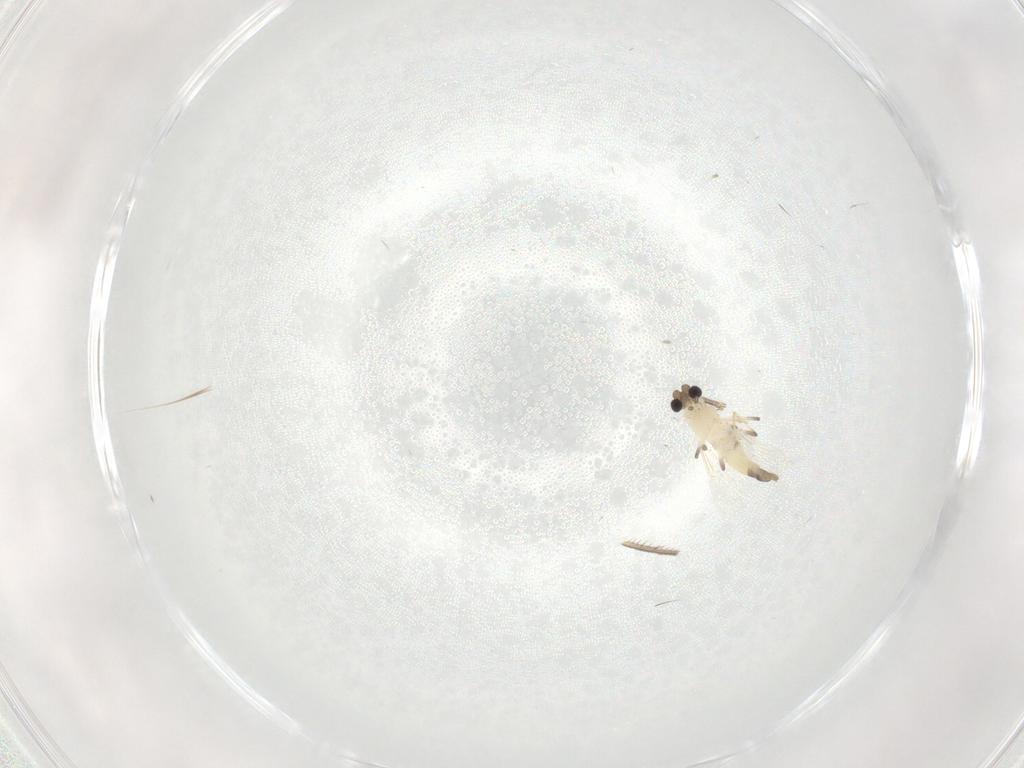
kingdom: Animalia
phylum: Arthropoda
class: Insecta
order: Diptera
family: Chironomidae
